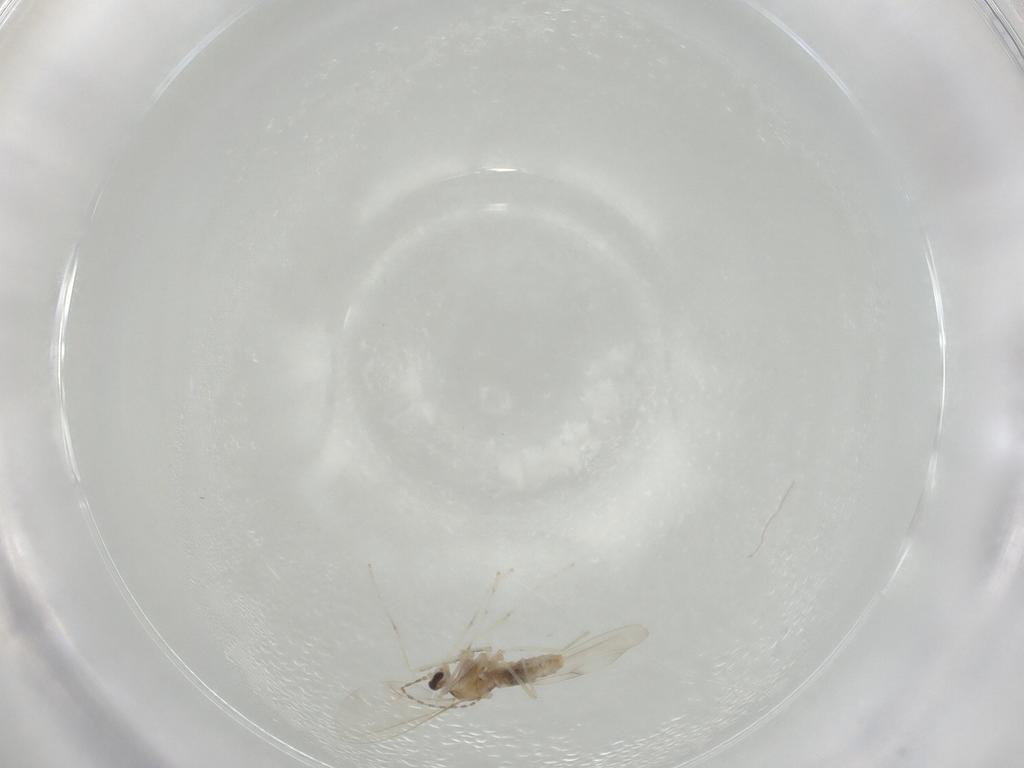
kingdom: Animalia
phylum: Arthropoda
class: Insecta
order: Diptera
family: Cecidomyiidae
